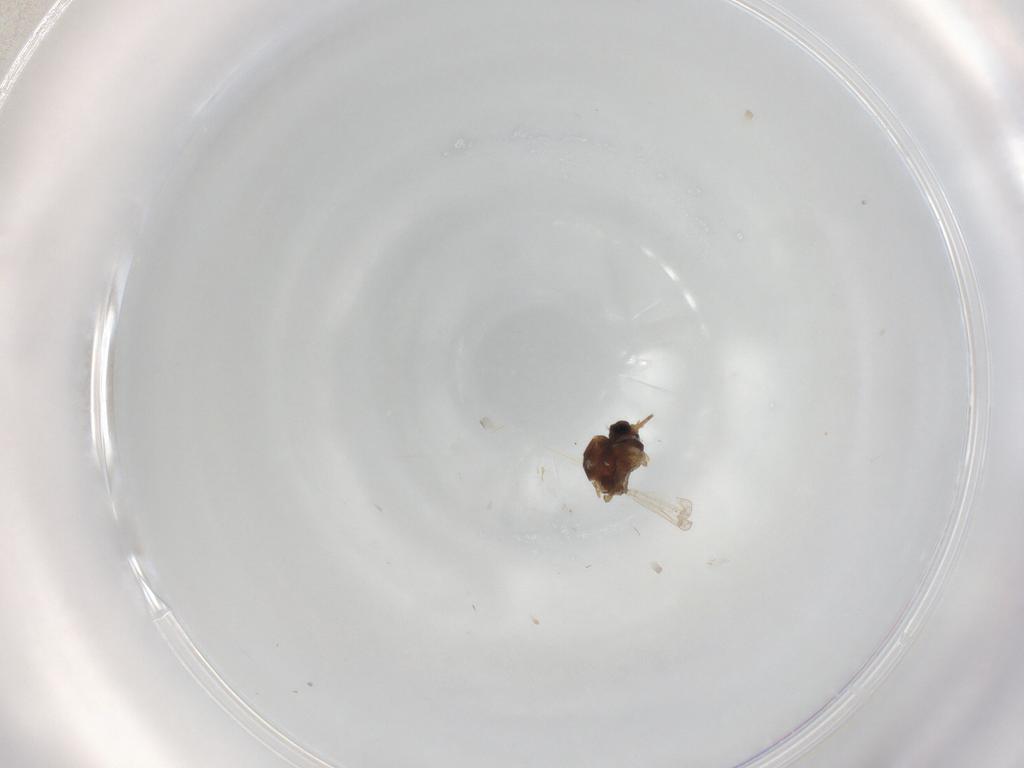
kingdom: Animalia
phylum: Arthropoda
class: Insecta
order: Diptera
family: Ceratopogonidae
